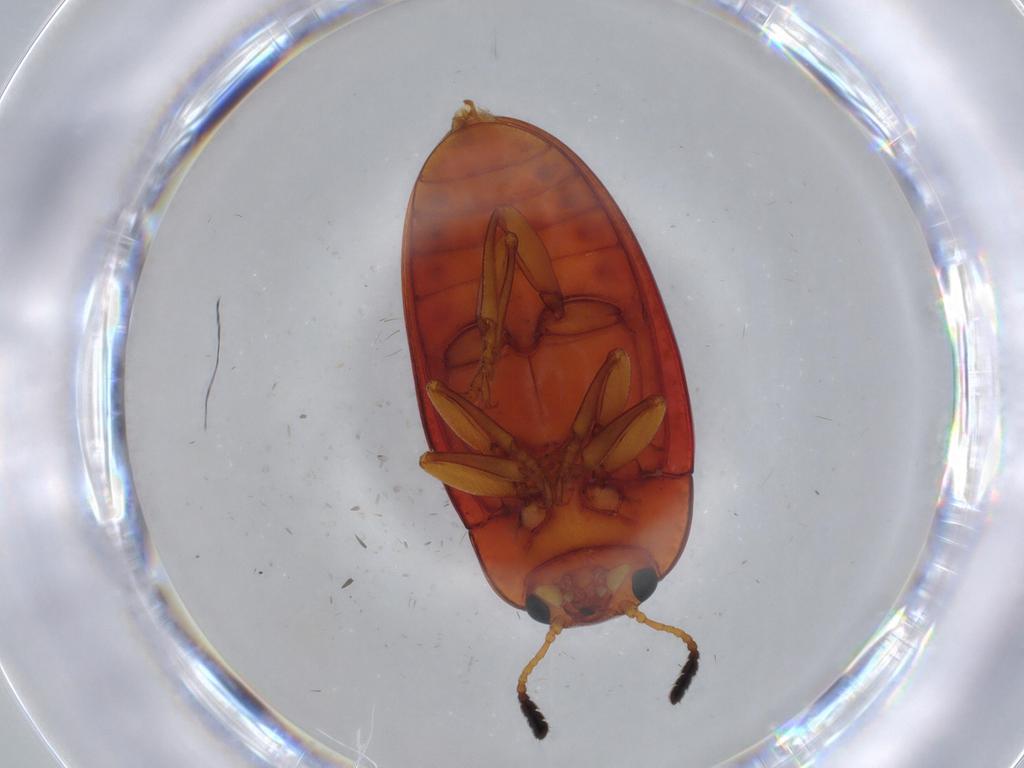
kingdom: Animalia
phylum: Arthropoda
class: Insecta
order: Coleoptera
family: Erotylidae
